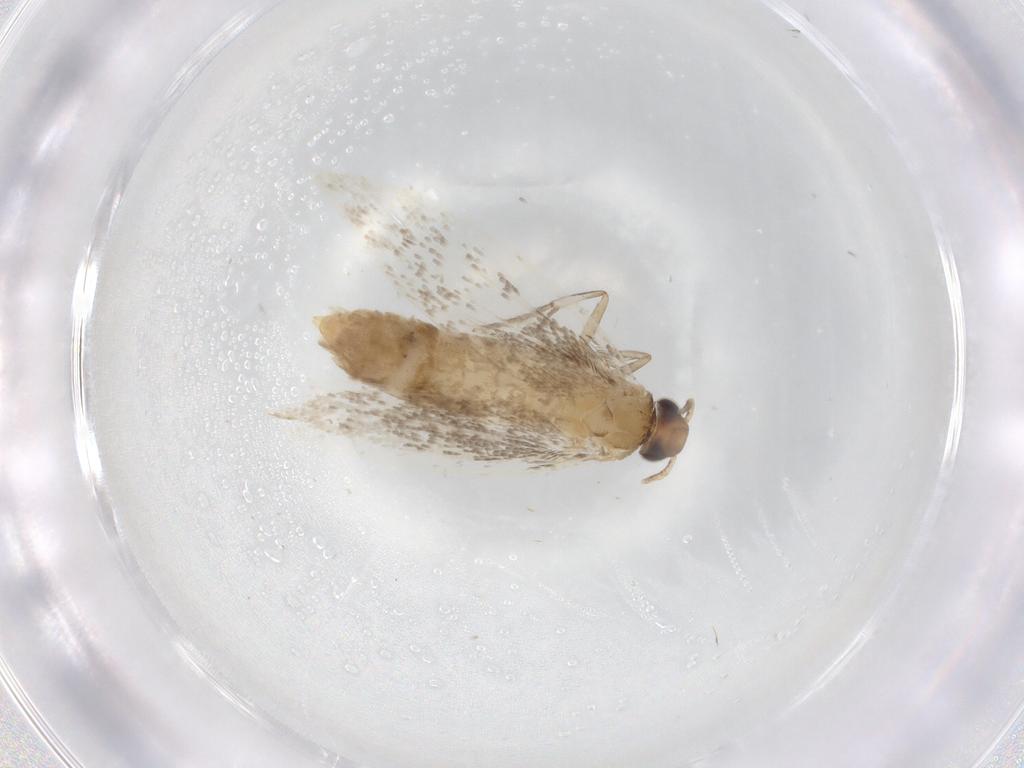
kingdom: Animalia
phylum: Arthropoda
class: Insecta
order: Lepidoptera
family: Gelechiidae
